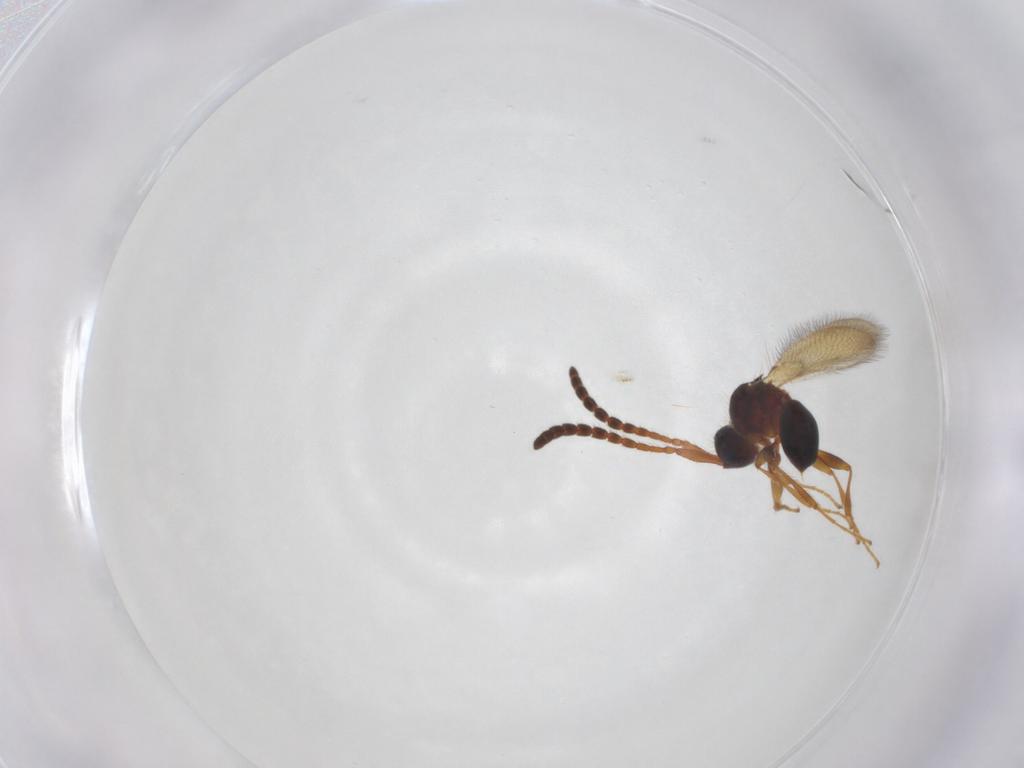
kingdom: Animalia
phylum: Arthropoda
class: Insecta
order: Hymenoptera
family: Diapriidae
